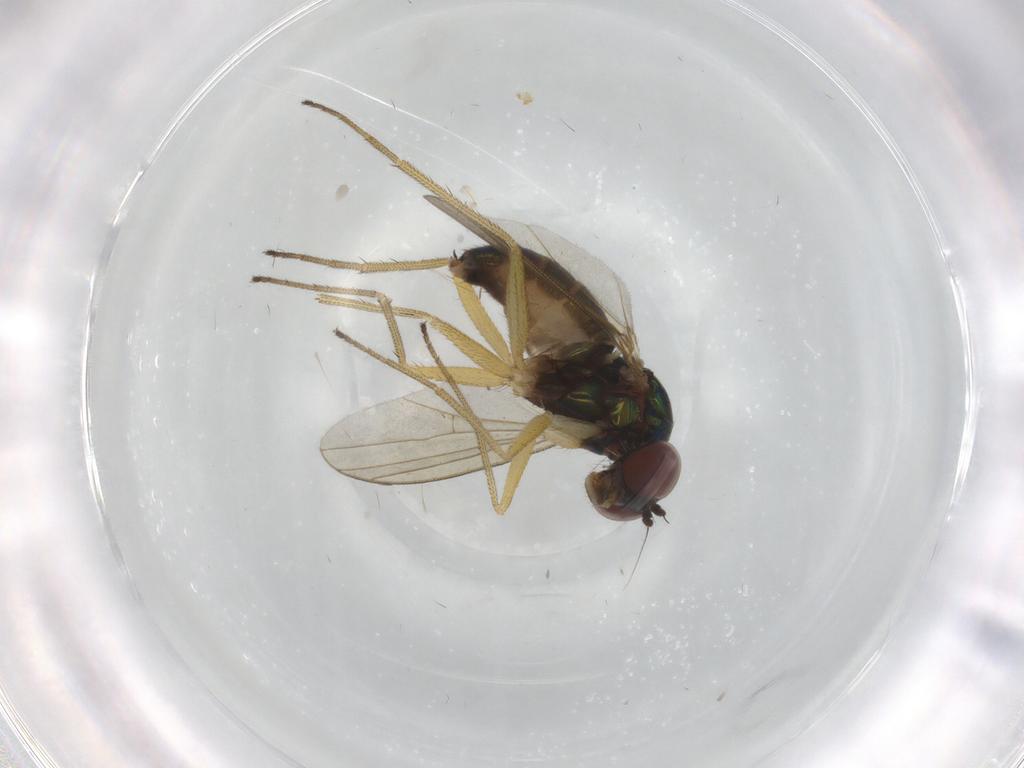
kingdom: Animalia
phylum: Arthropoda
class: Insecta
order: Diptera
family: Dolichopodidae
